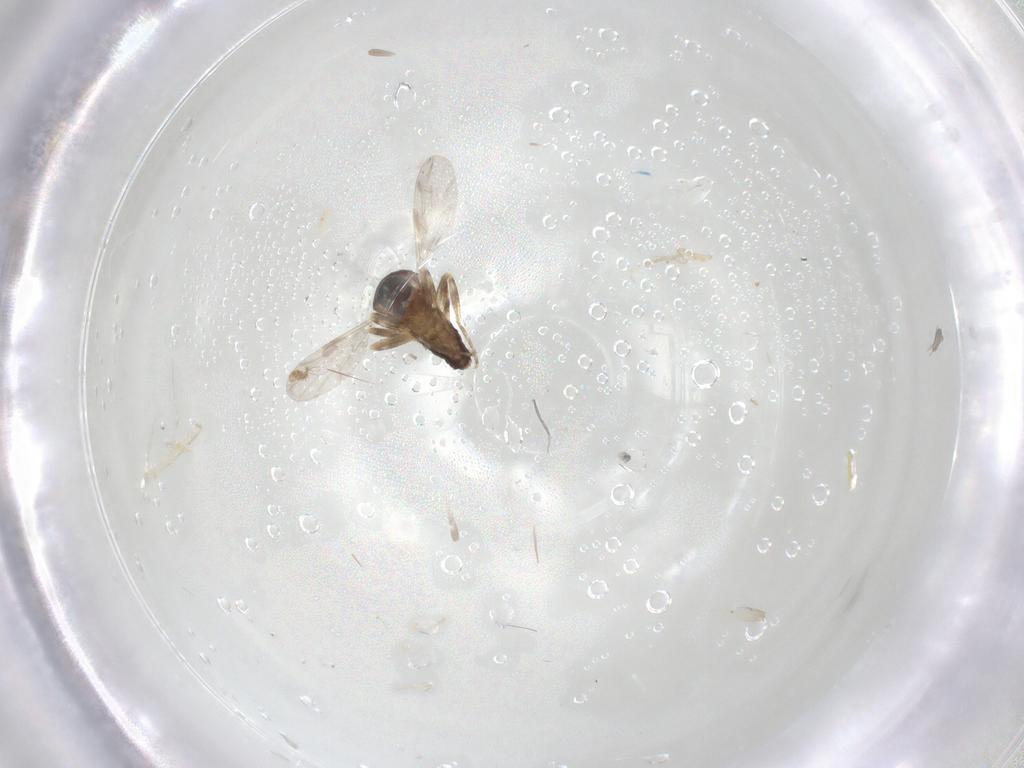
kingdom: Animalia
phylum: Arthropoda
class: Insecta
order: Diptera
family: Ceratopogonidae
